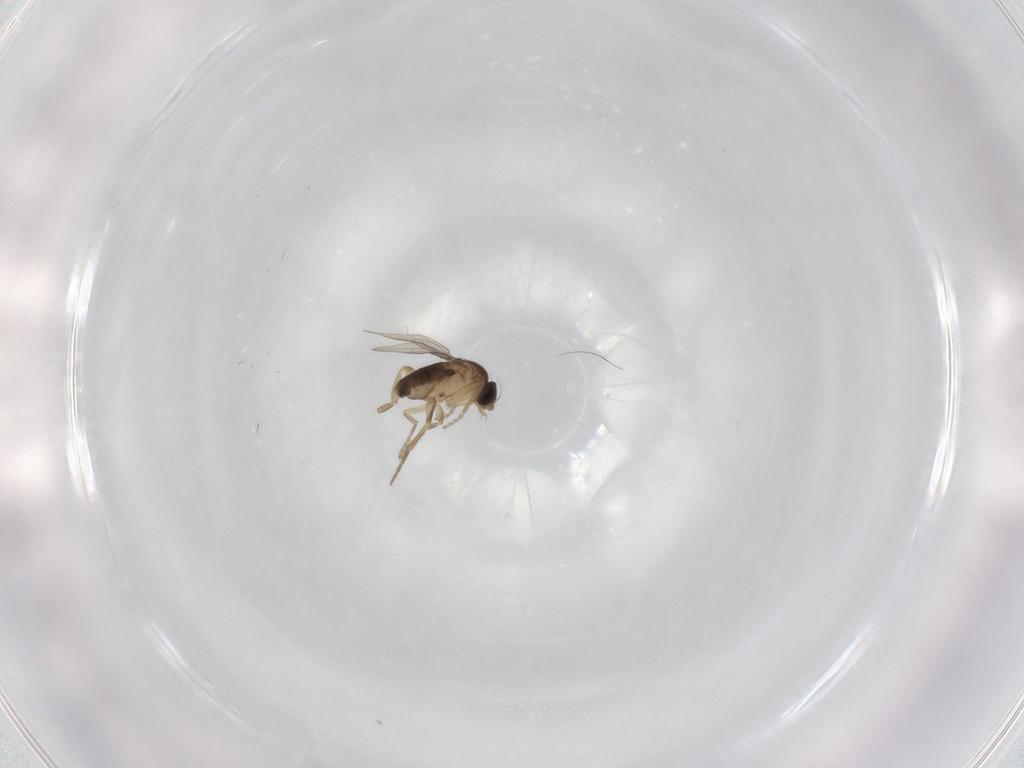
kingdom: Animalia
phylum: Arthropoda
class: Insecta
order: Diptera
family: Phoridae
